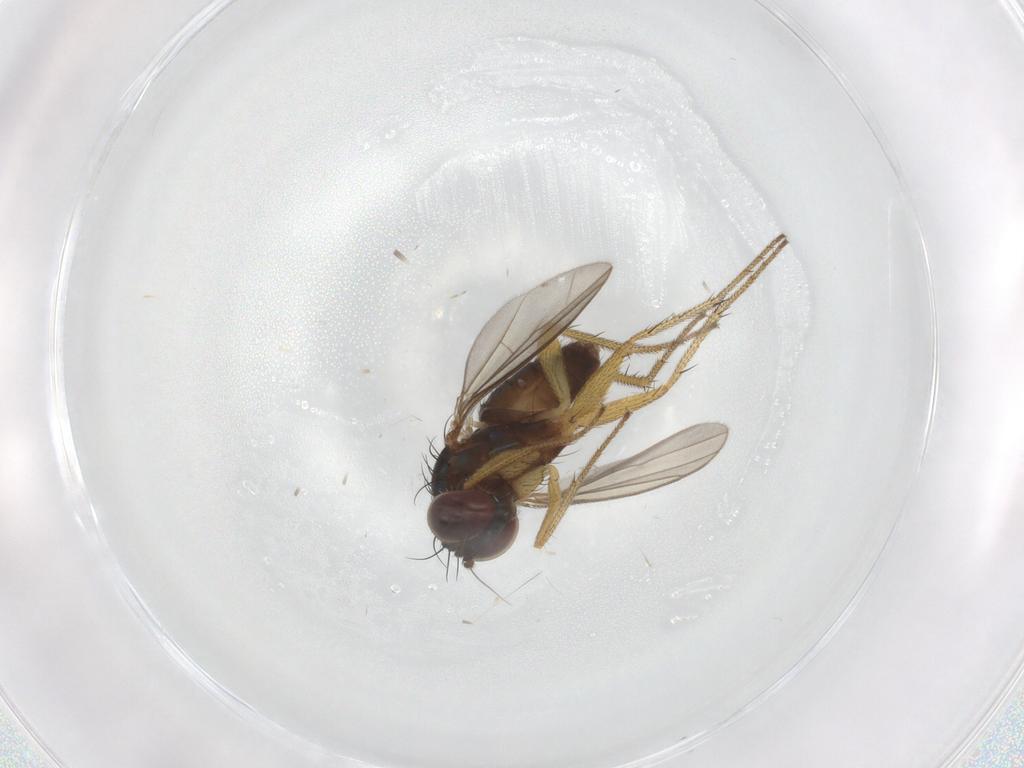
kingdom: Animalia
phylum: Arthropoda
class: Insecta
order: Diptera
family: Dolichopodidae
